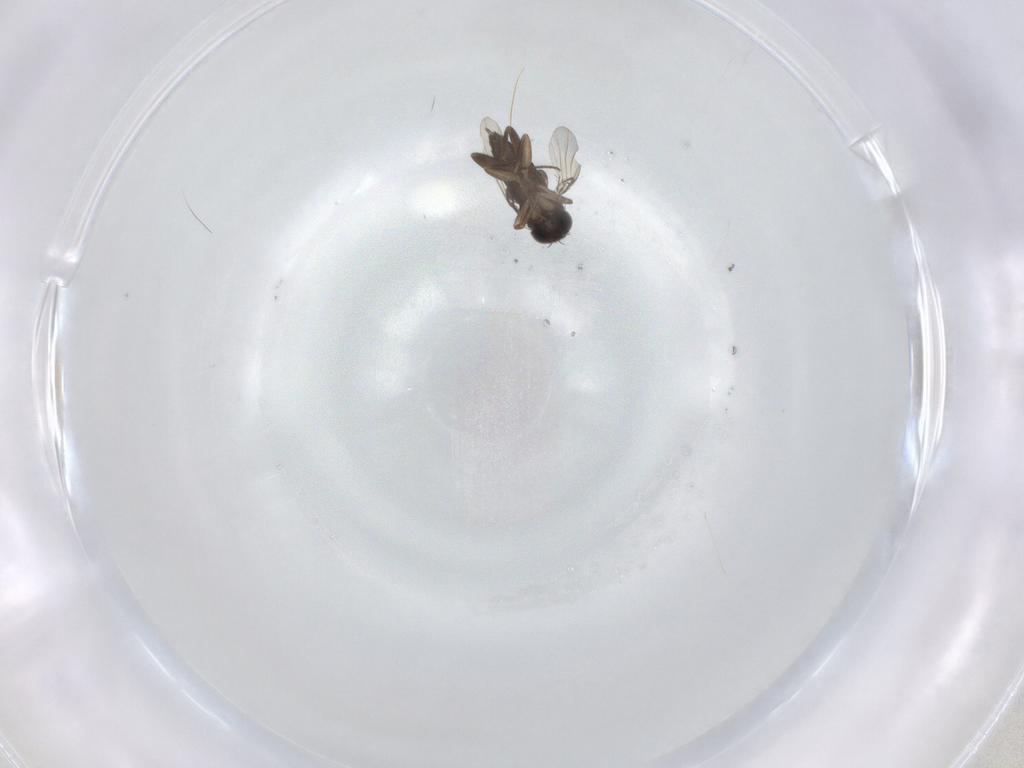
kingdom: Animalia
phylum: Arthropoda
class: Insecta
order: Diptera
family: Phoridae
